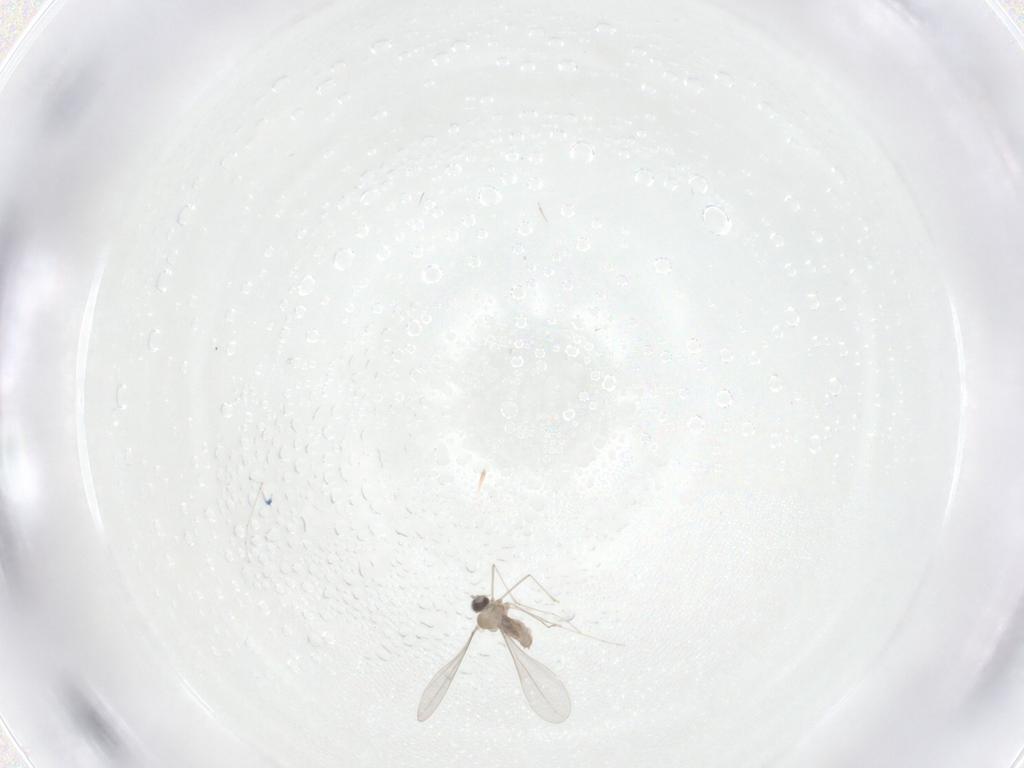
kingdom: Animalia
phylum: Arthropoda
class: Insecta
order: Diptera
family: Cecidomyiidae
